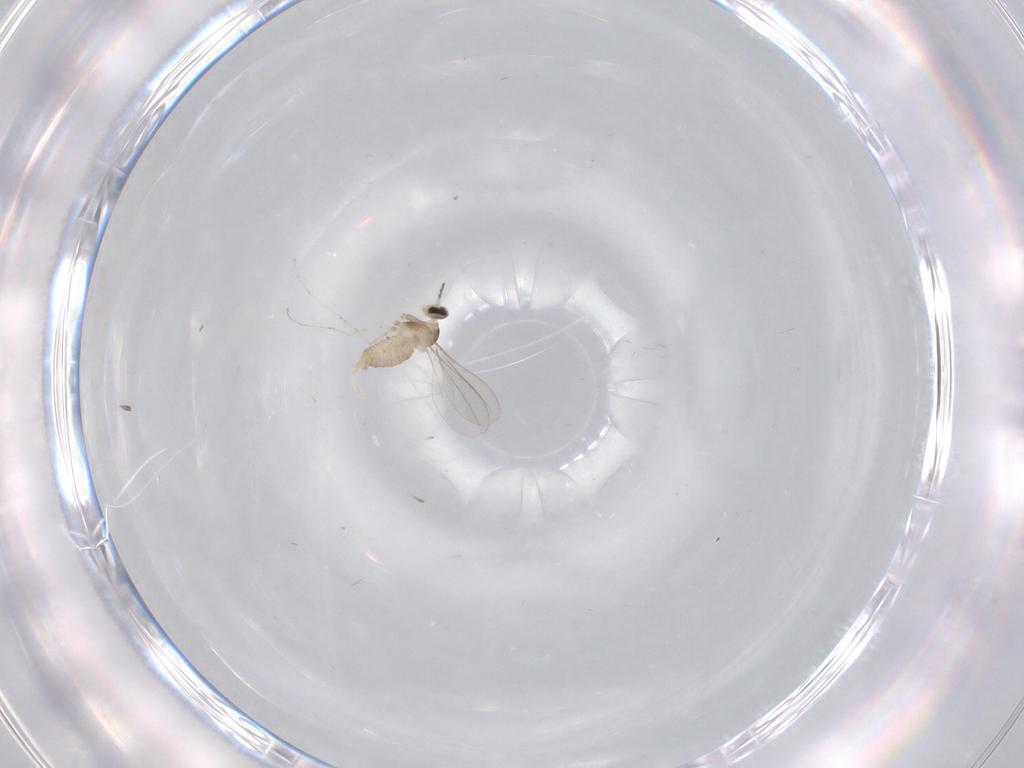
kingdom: Animalia
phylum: Arthropoda
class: Insecta
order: Diptera
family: Cecidomyiidae
